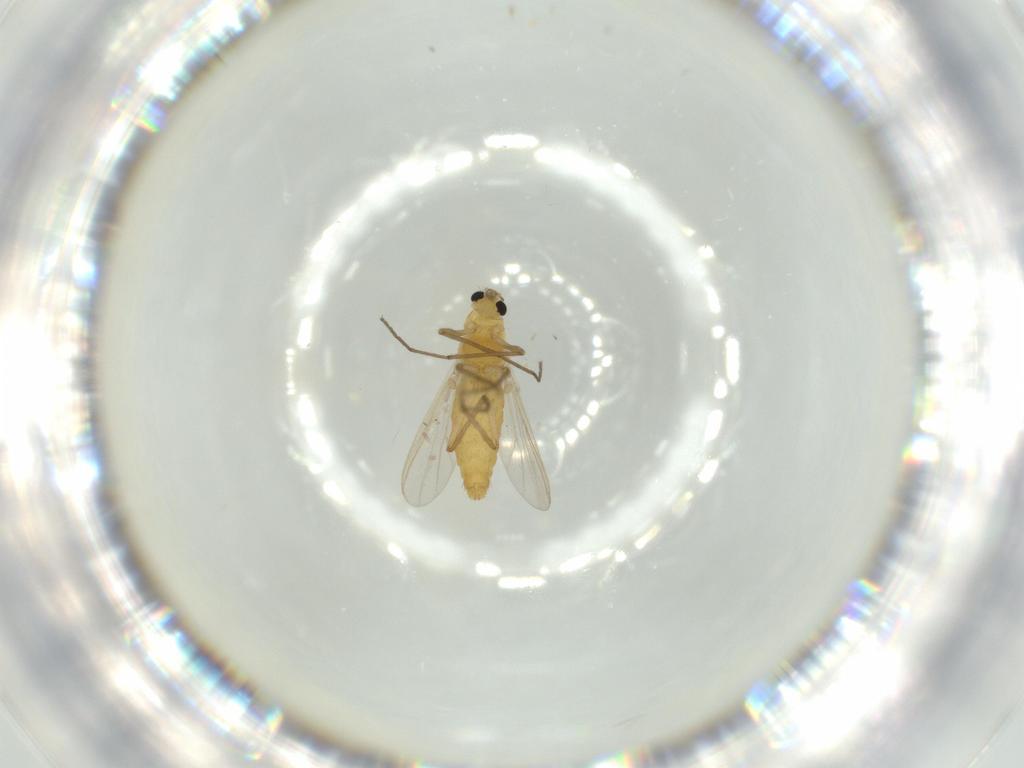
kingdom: Animalia
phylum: Arthropoda
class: Insecta
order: Diptera
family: Chironomidae
